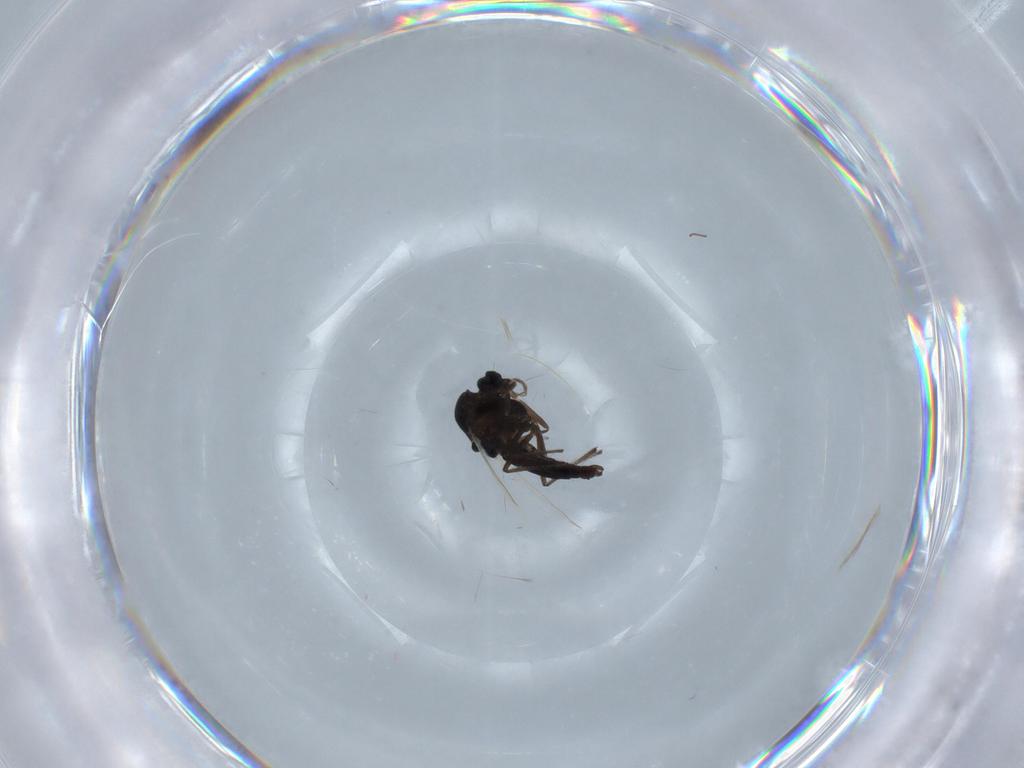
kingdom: Animalia
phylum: Arthropoda
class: Insecta
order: Diptera
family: Chironomidae
